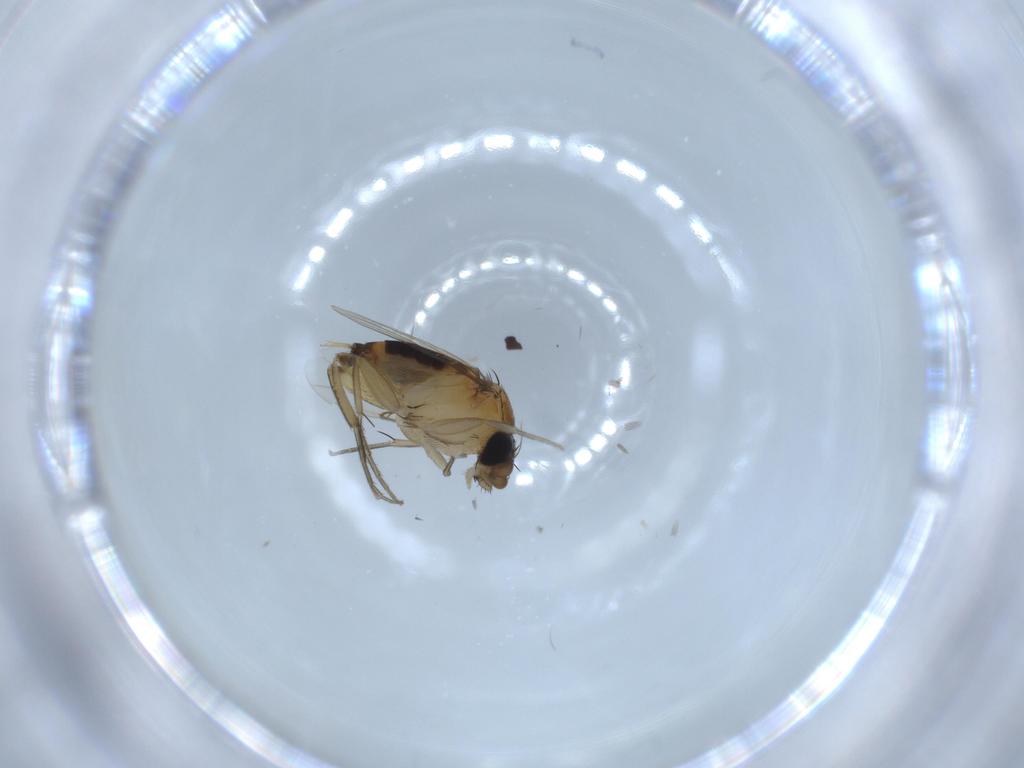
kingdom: Animalia
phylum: Arthropoda
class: Insecta
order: Diptera
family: Phoridae
